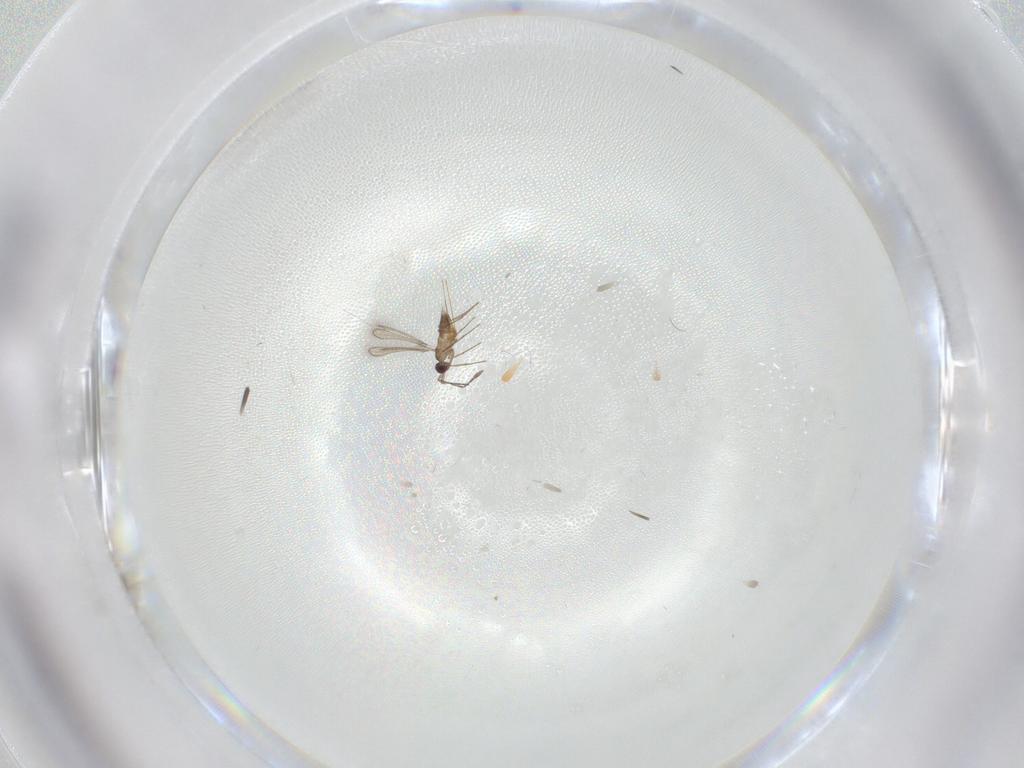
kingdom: Animalia
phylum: Arthropoda
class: Insecta
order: Hymenoptera
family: Mymaridae
